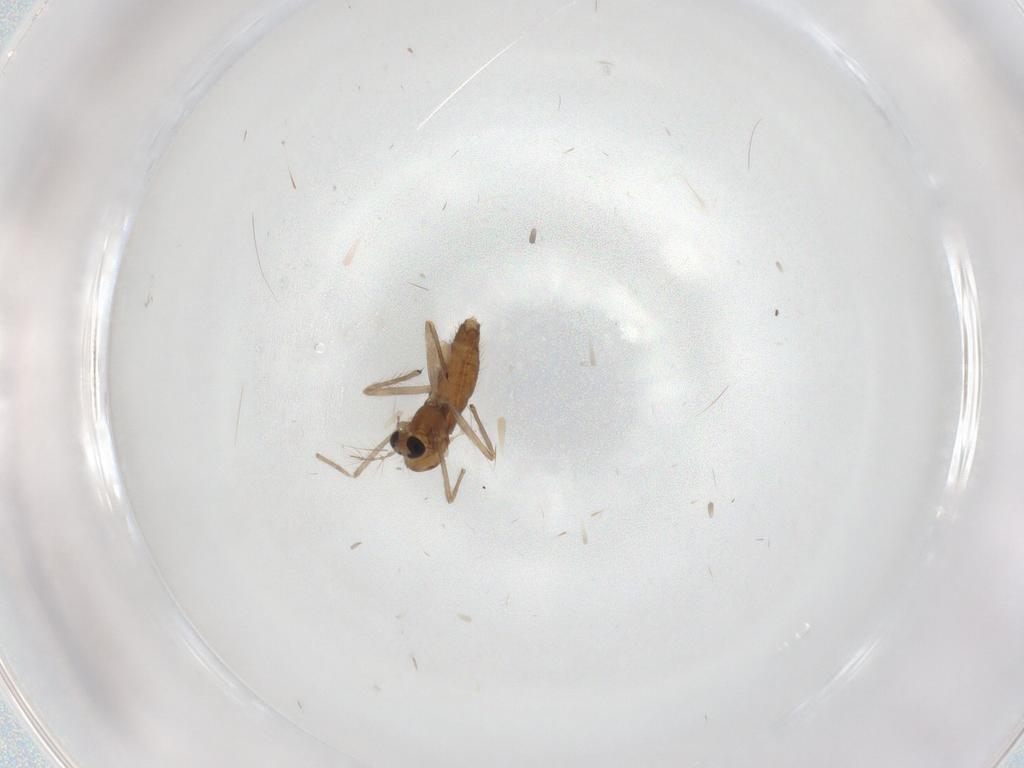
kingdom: Animalia
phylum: Arthropoda
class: Insecta
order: Diptera
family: Chironomidae
